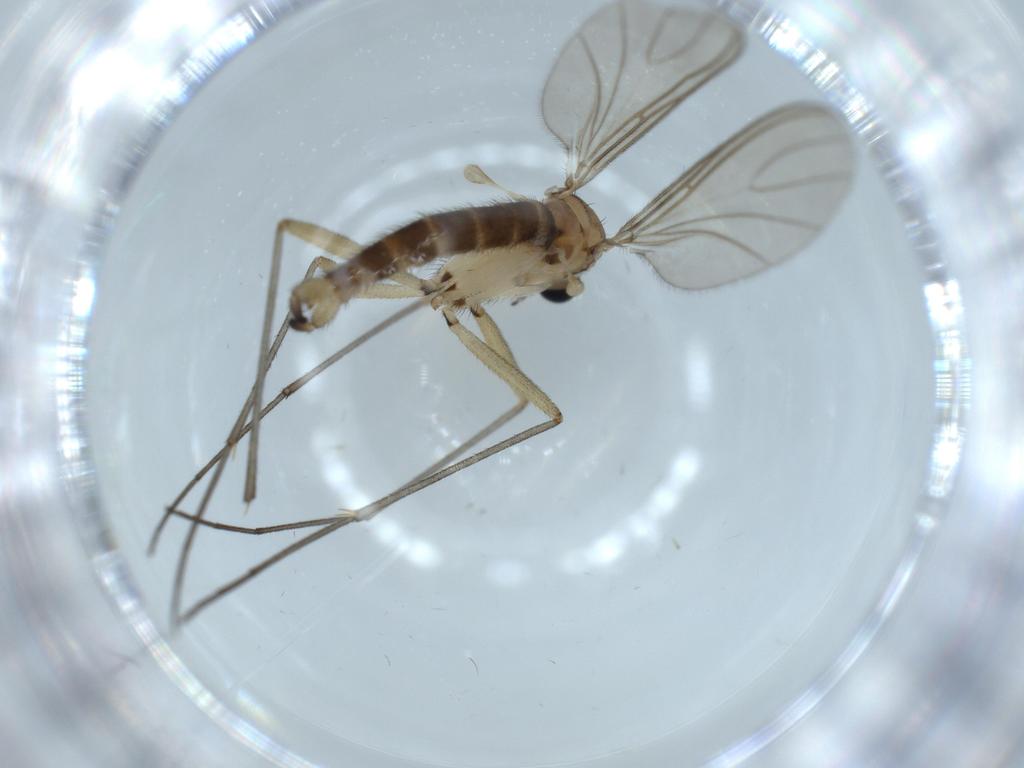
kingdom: Animalia
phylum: Arthropoda
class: Insecta
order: Diptera
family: Sciaridae
